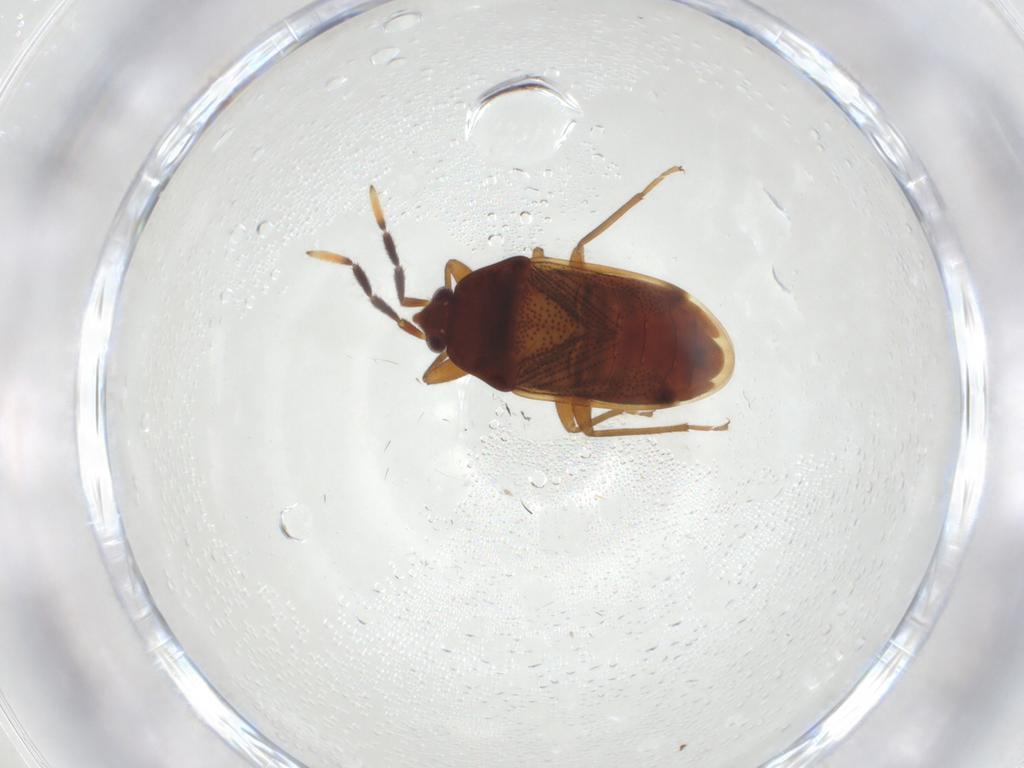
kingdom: Animalia
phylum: Arthropoda
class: Insecta
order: Hemiptera
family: Rhyparochromidae
